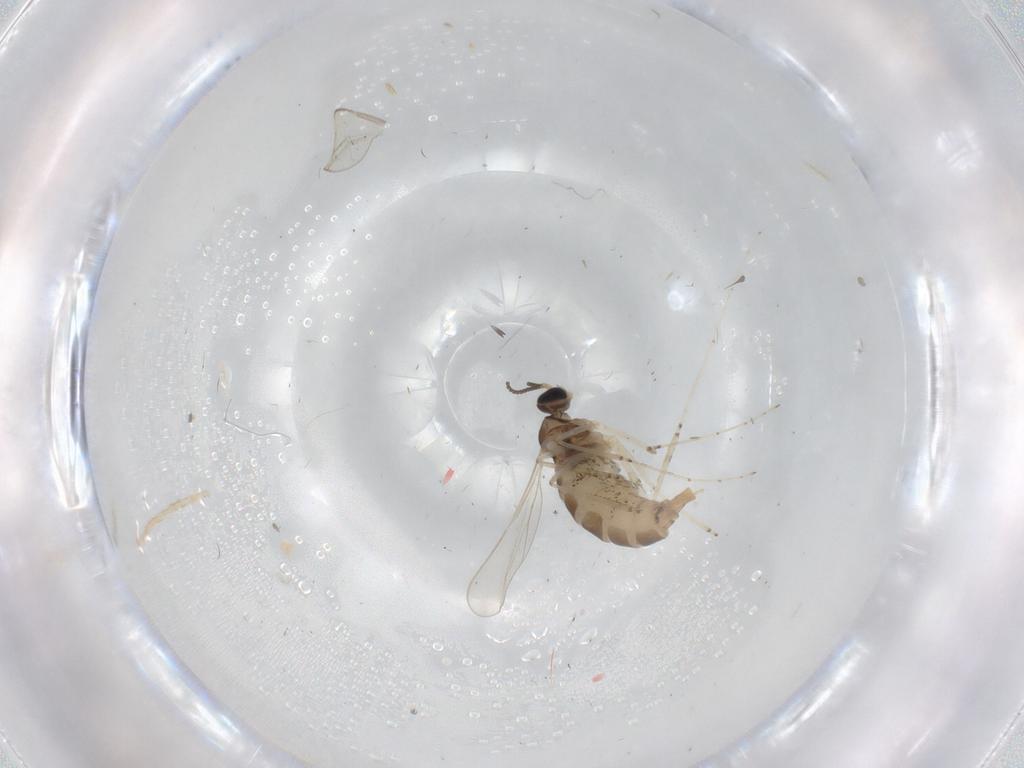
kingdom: Animalia
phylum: Arthropoda
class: Insecta
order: Diptera
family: Cecidomyiidae
